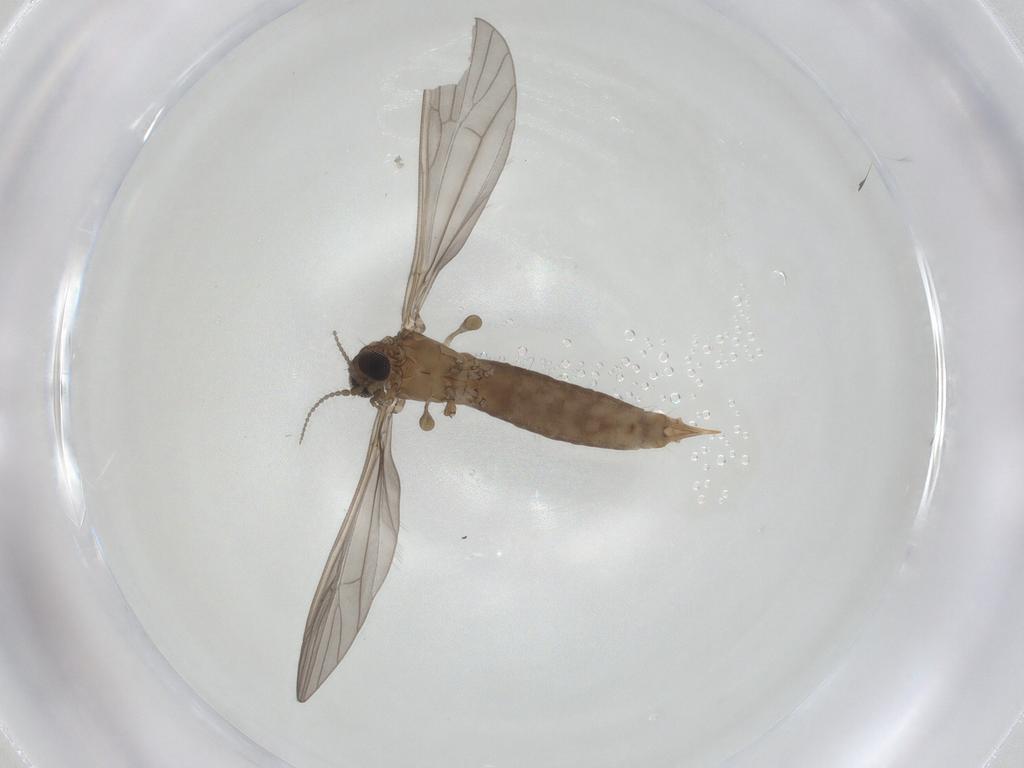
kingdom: Animalia
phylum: Arthropoda
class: Insecta
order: Diptera
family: Limoniidae
